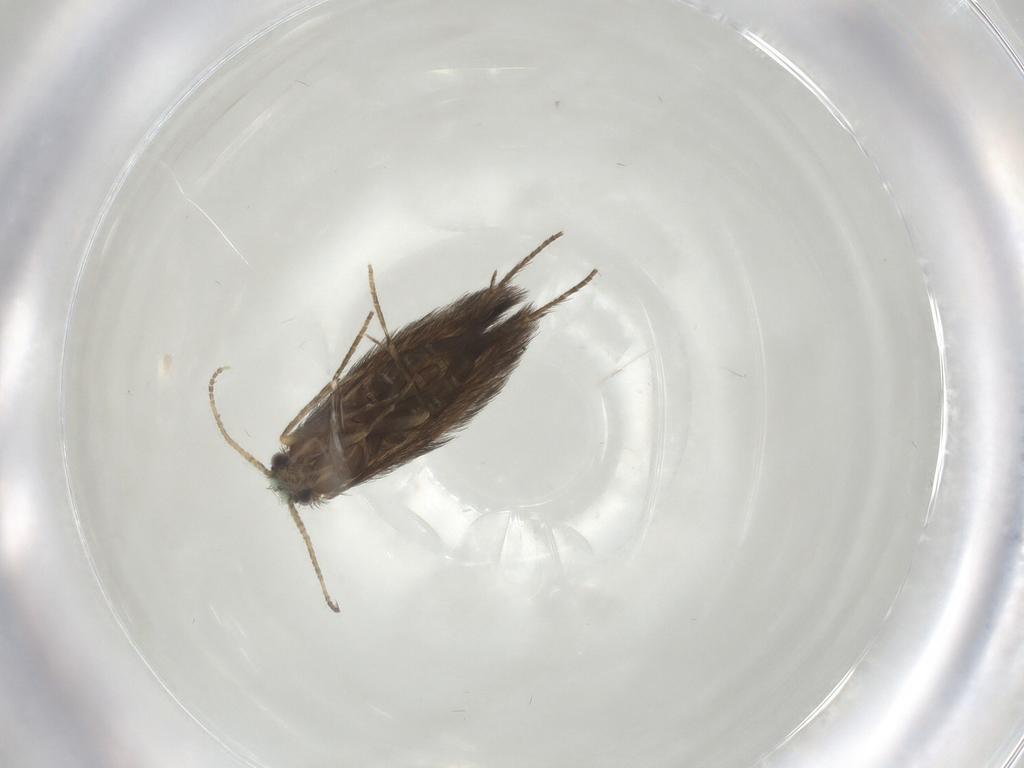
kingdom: Animalia
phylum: Arthropoda
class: Insecta
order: Trichoptera
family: Hydroptilidae
